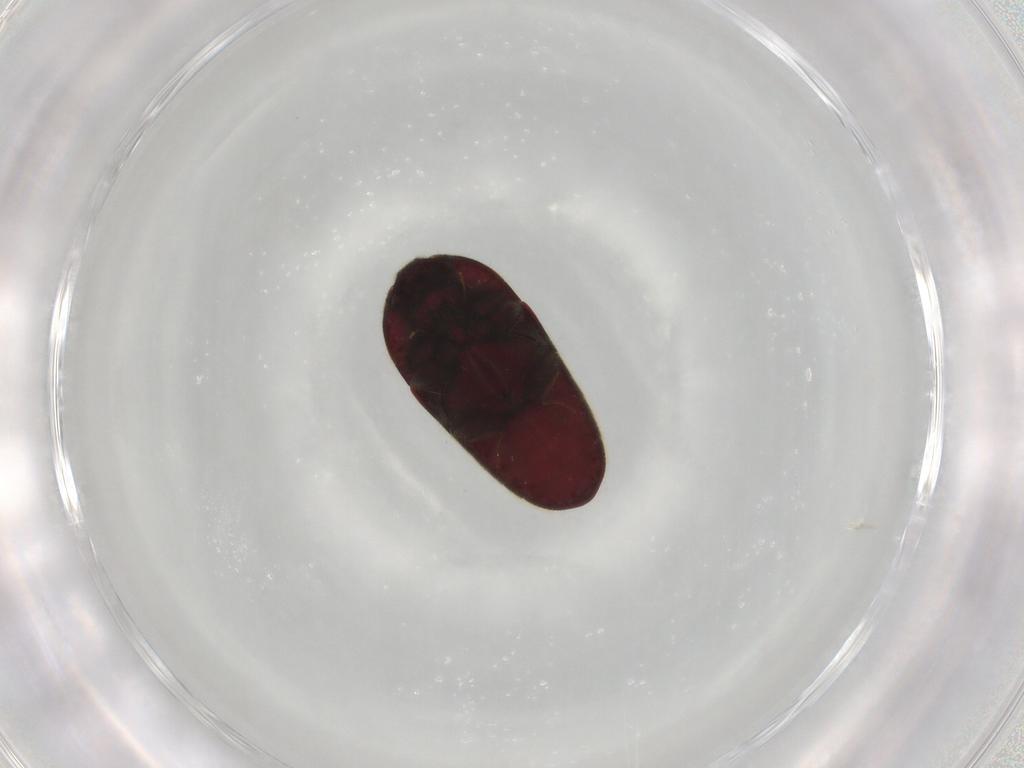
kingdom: Animalia
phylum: Arthropoda
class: Insecta
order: Coleoptera
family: Throscidae
